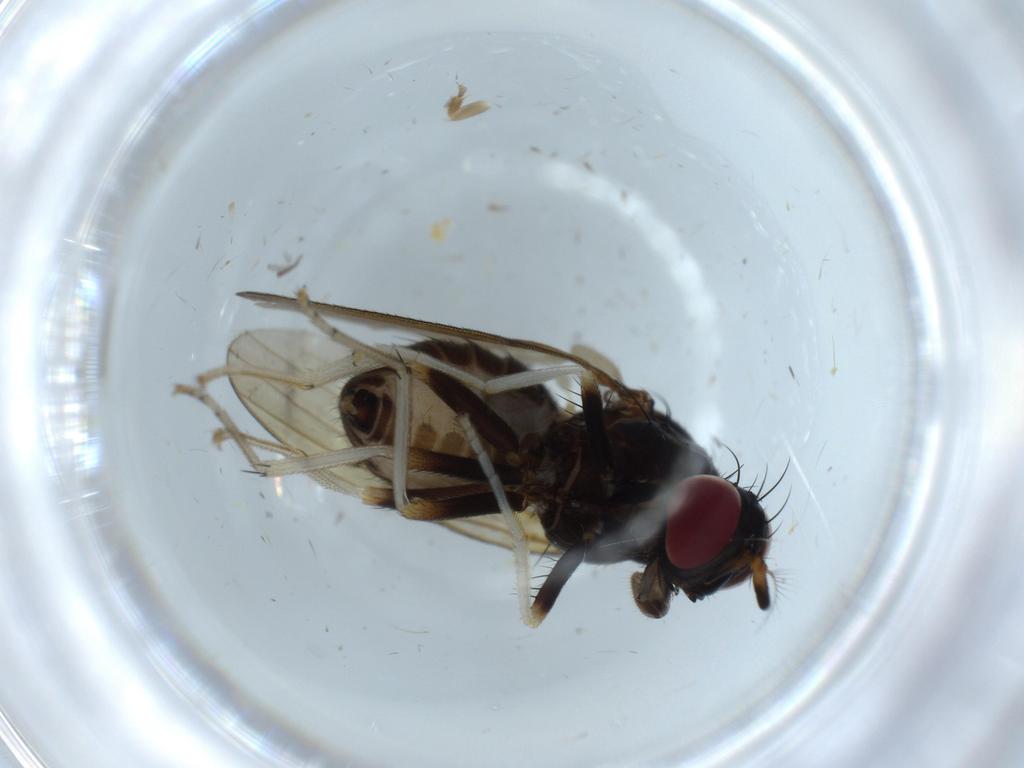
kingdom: Animalia
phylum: Arthropoda
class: Insecta
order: Diptera
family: Sciaridae
